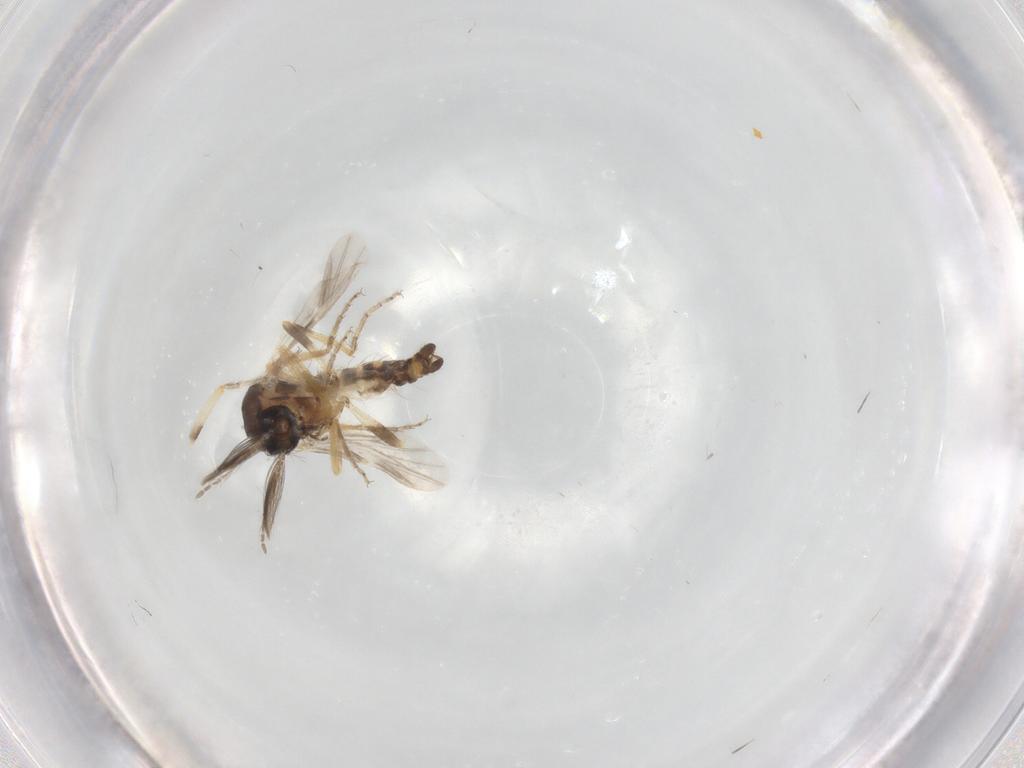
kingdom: Animalia
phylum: Arthropoda
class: Insecta
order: Diptera
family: Ceratopogonidae
